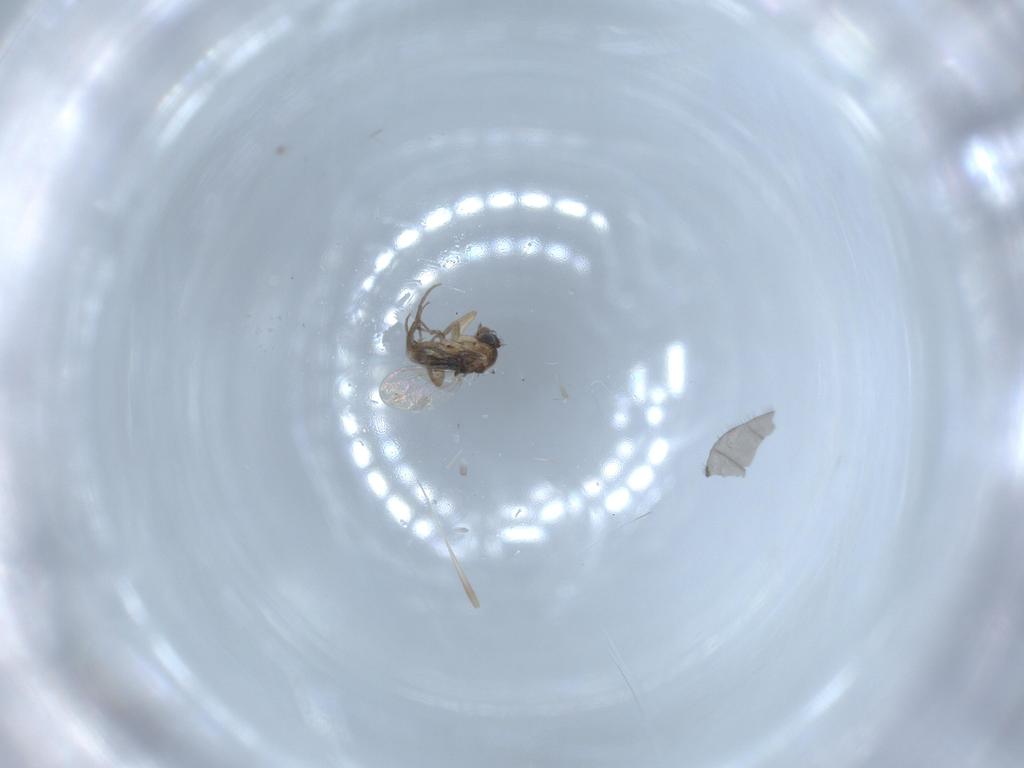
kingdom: Animalia
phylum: Arthropoda
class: Insecta
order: Diptera
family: Phoridae
